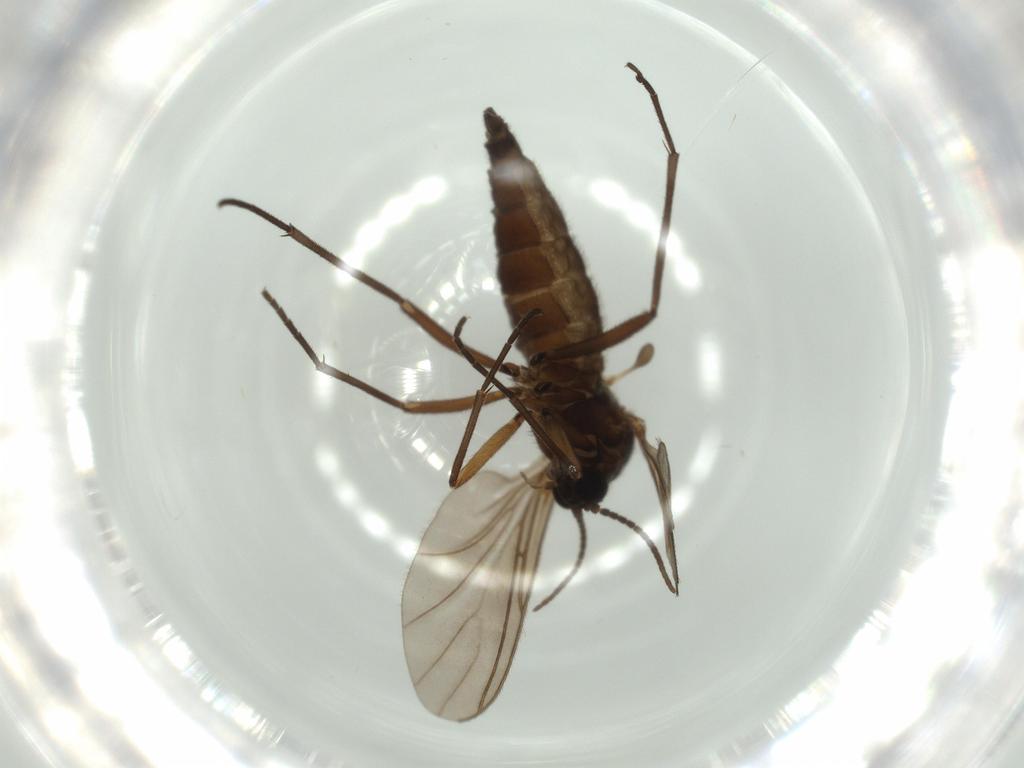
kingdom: Animalia
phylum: Arthropoda
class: Insecta
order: Diptera
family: Sciaridae
